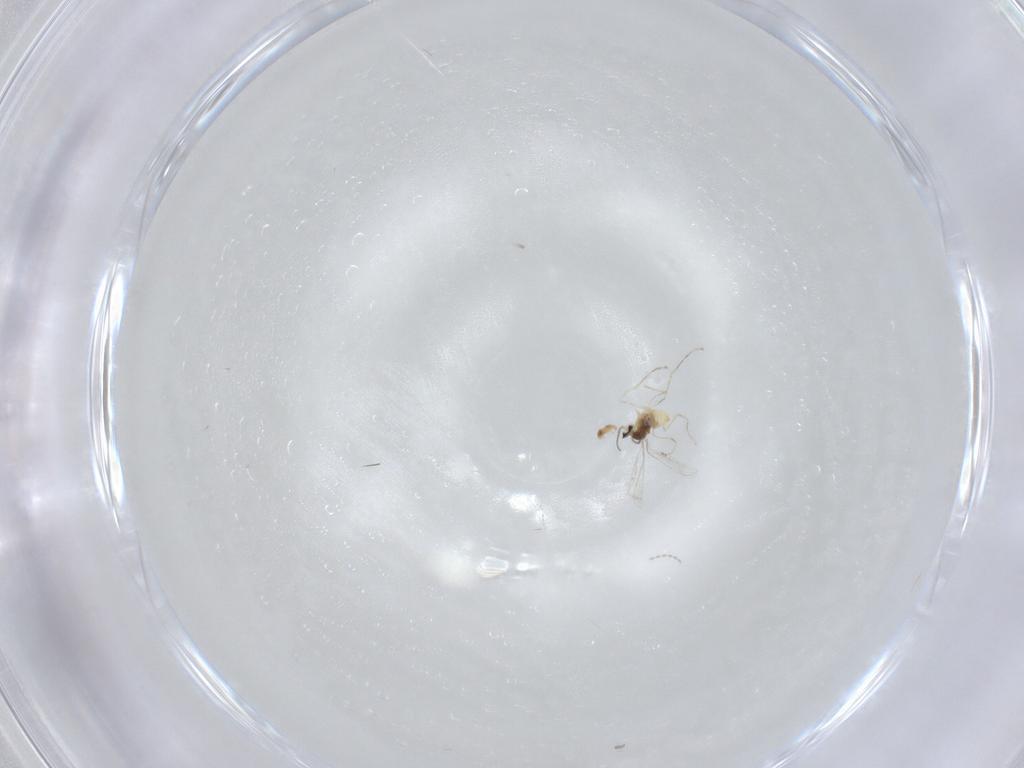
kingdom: Animalia
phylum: Arthropoda
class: Insecta
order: Diptera
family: Cecidomyiidae
